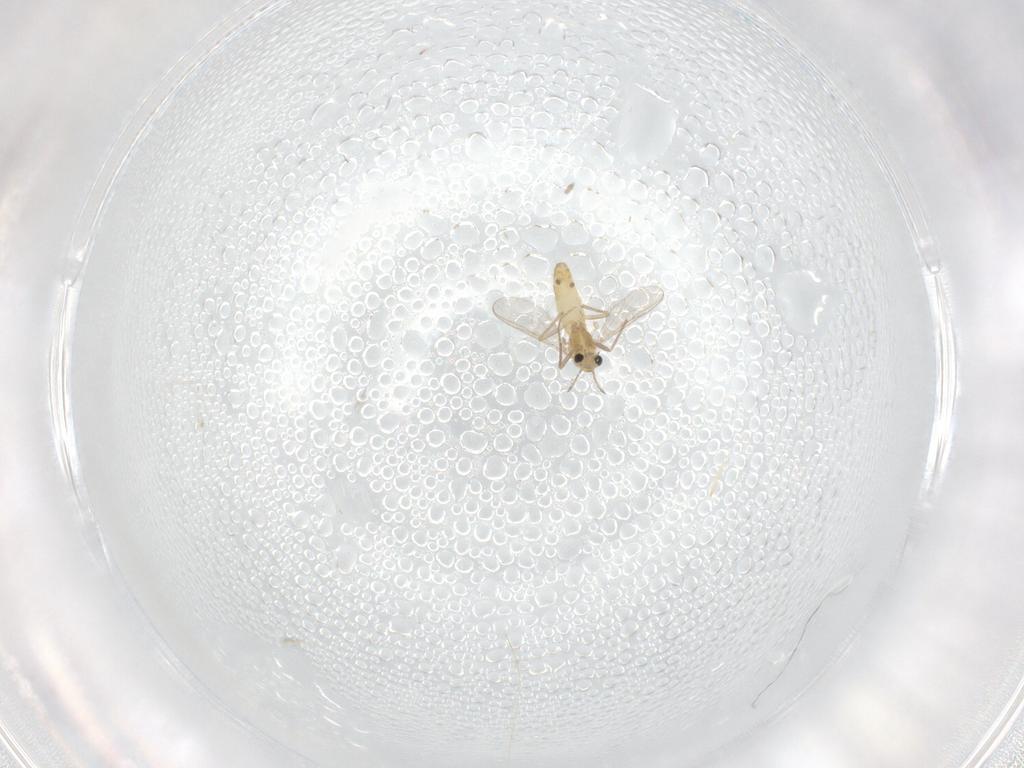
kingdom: Animalia
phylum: Arthropoda
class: Insecta
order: Diptera
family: Chironomidae
